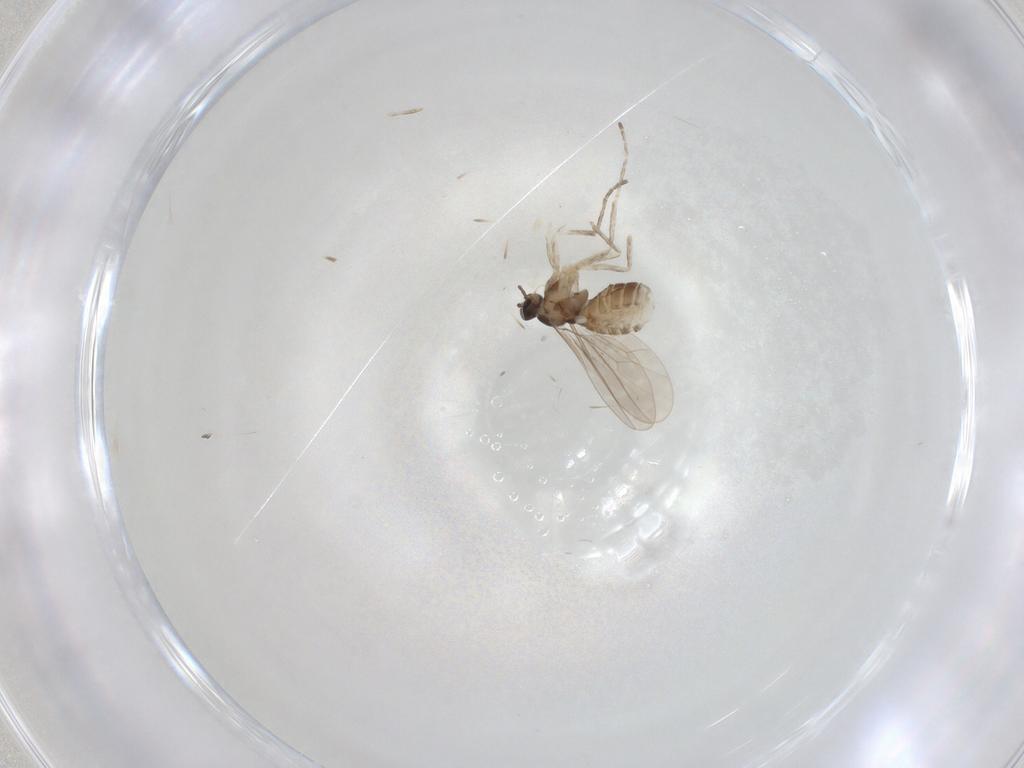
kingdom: Animalia
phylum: Arthropoda
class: Insecta
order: Diptera
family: Cecidomyiidae
